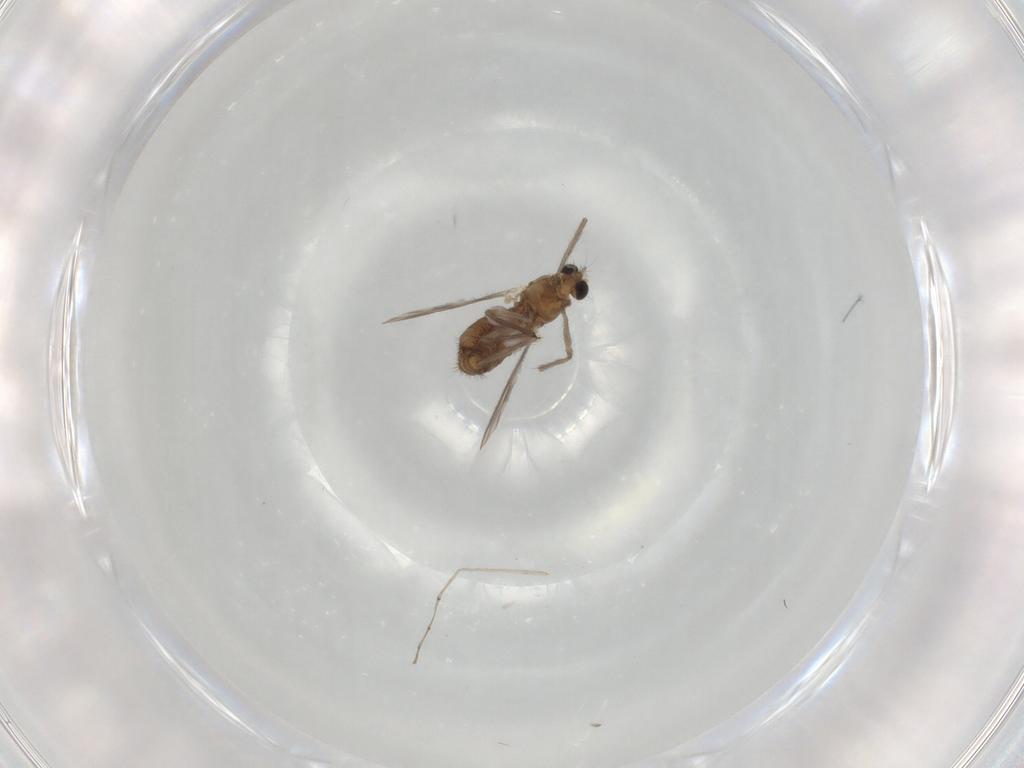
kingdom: Animalia
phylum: Arthropoda
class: Insecta
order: Diptera
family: Chironomidae
